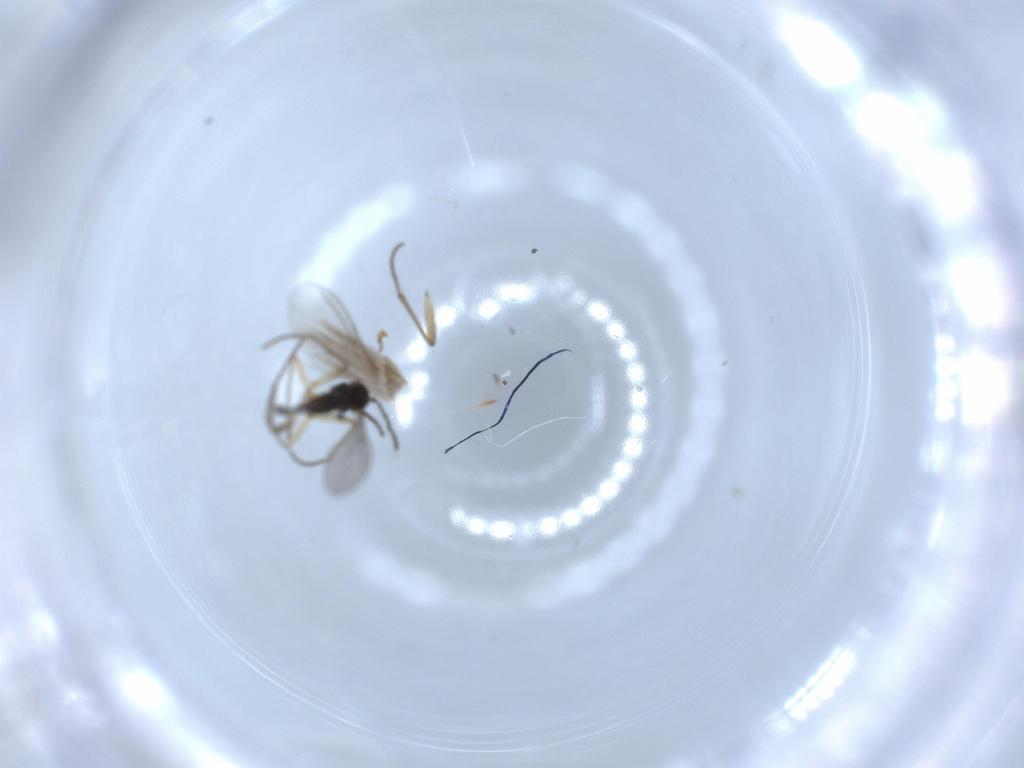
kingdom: Animalia
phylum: Arthropoda
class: Insecta
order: Diptera
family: Sciaridae
